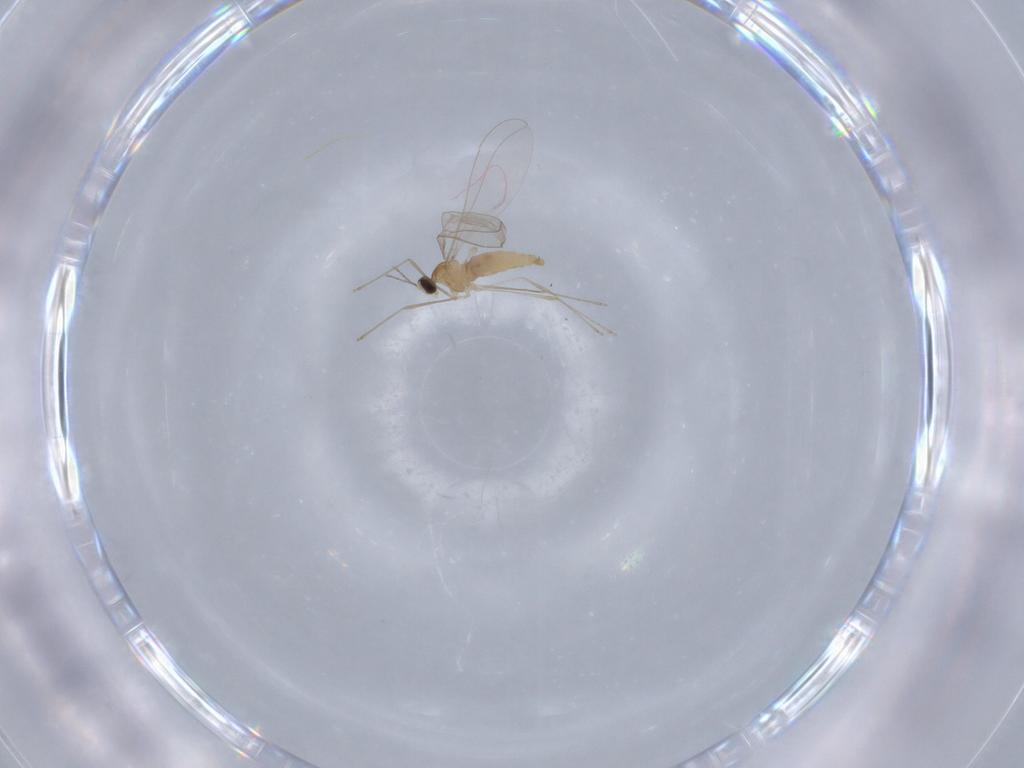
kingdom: Animalia
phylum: Arthropoda
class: Insecta
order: Diptera
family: Cecidomyiidae
